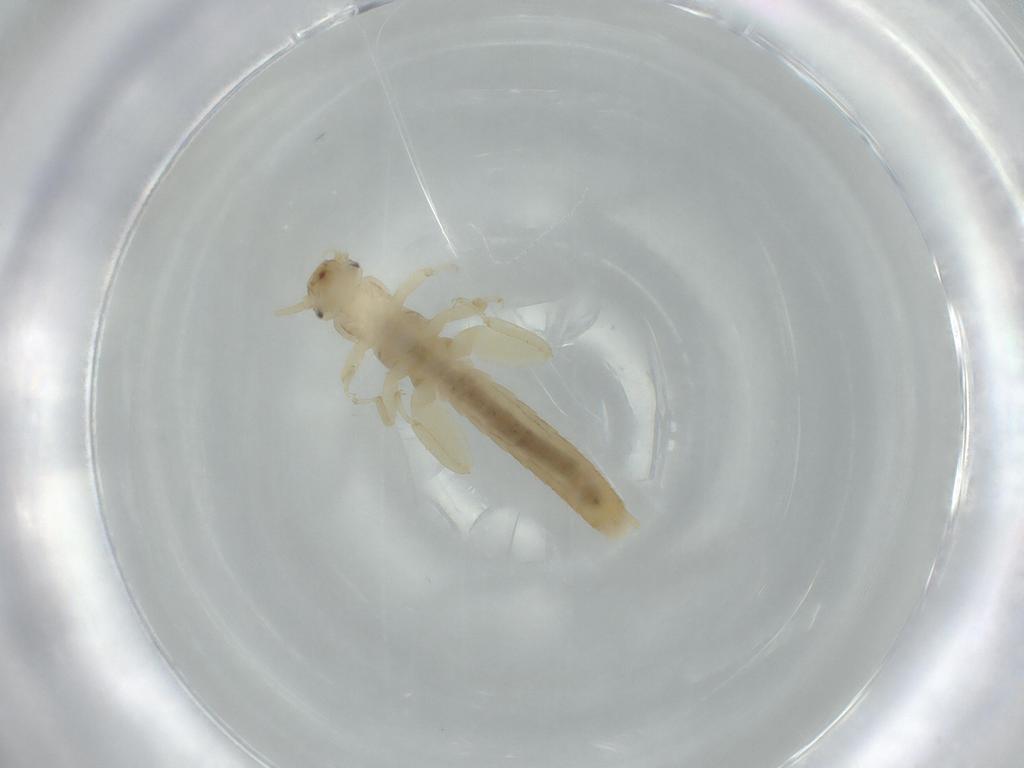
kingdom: Animalia
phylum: Arthropoda
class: Insecta
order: Plecoptera
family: Leuctridae
